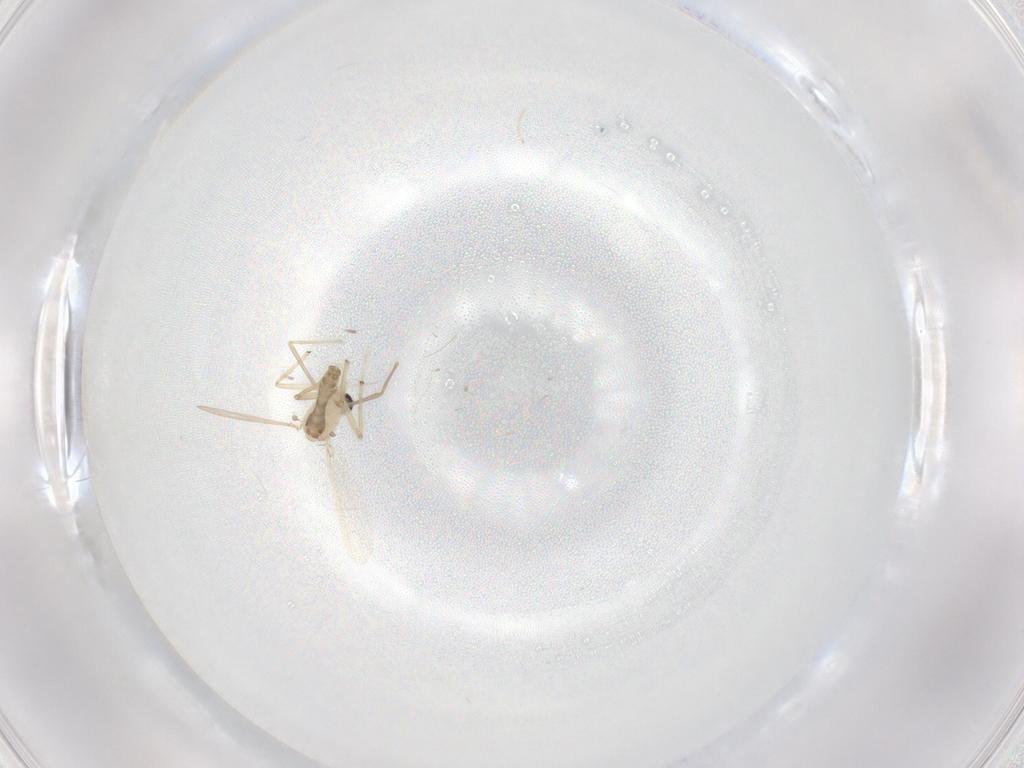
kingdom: Animalia
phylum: Arthropoda
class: Insecta
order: Diptera
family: Chironomidae
